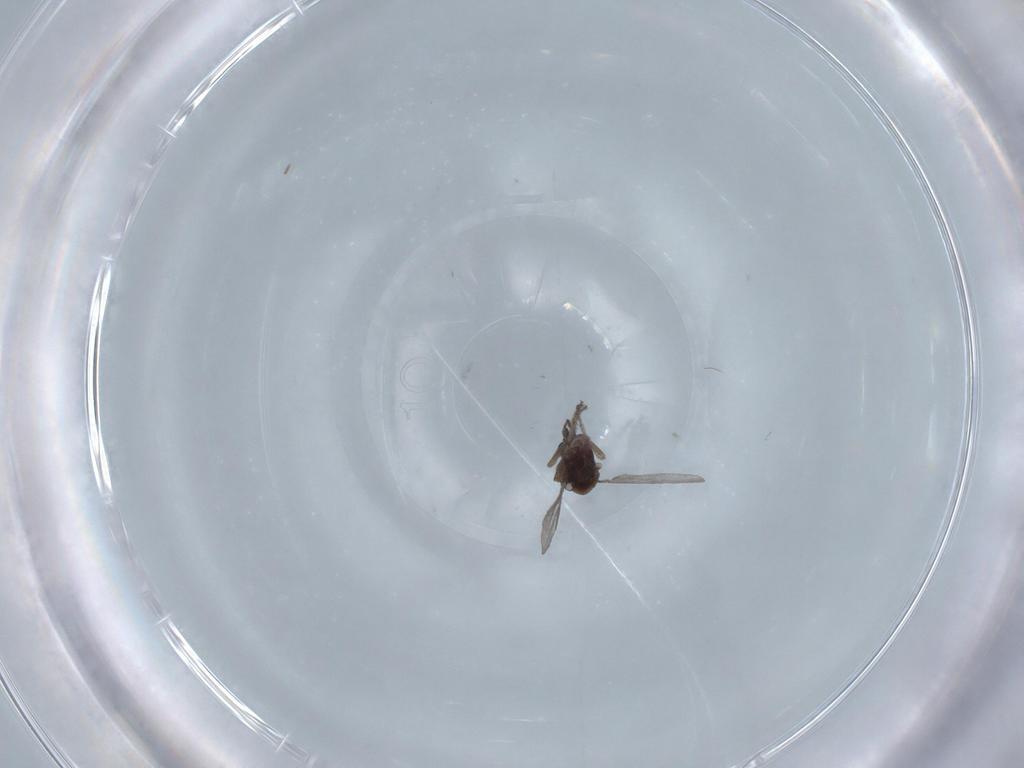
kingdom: Animalia
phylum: Arthropoda
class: Insecta
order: Diptera
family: Ceratopogonidae
